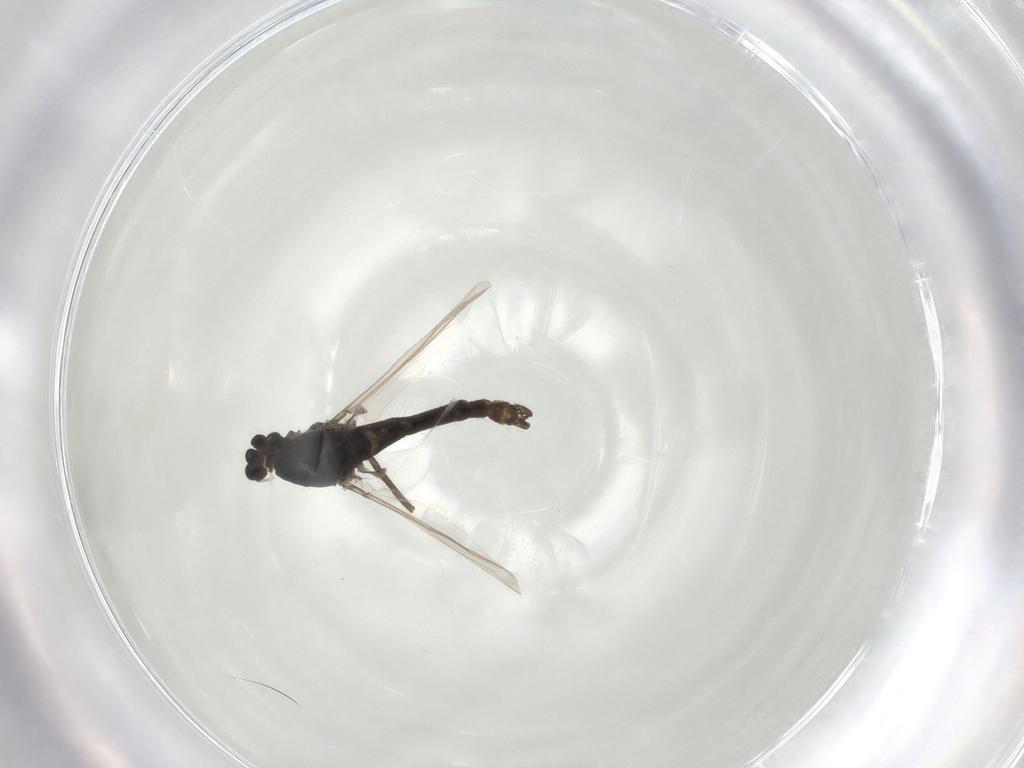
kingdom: Animalia
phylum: Arthropoda
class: Insecta
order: Diptera
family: Chironomidae
